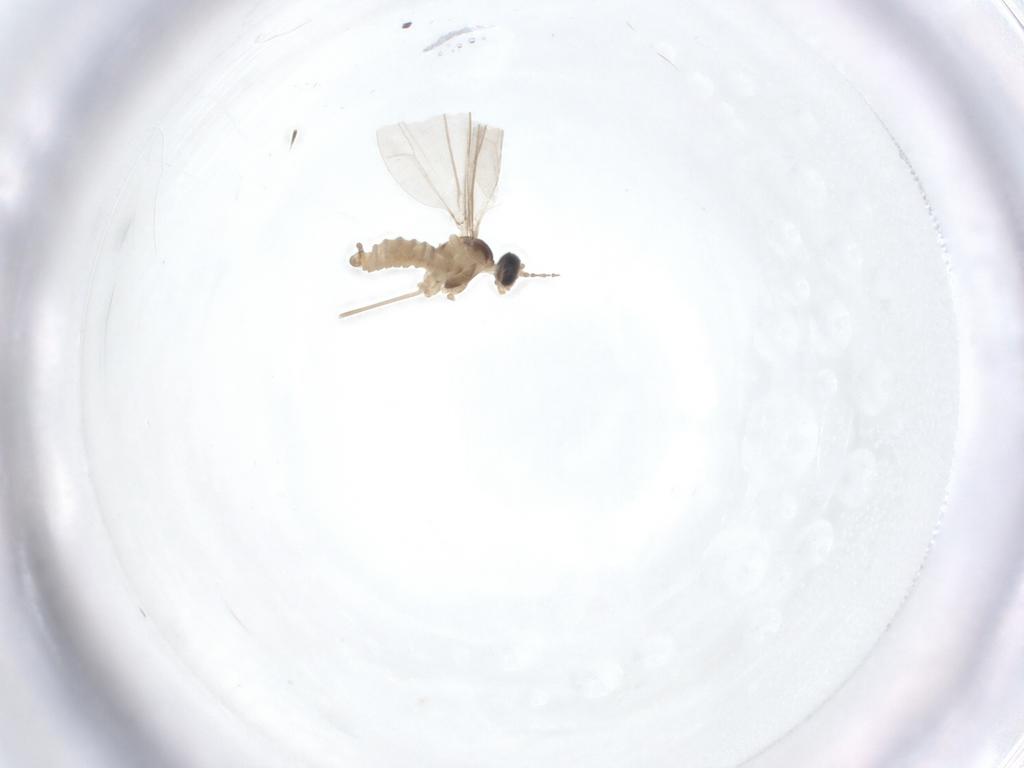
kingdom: Animalia
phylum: Arthropoda
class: Insecta
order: Diptera
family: Cecidomyiidae
